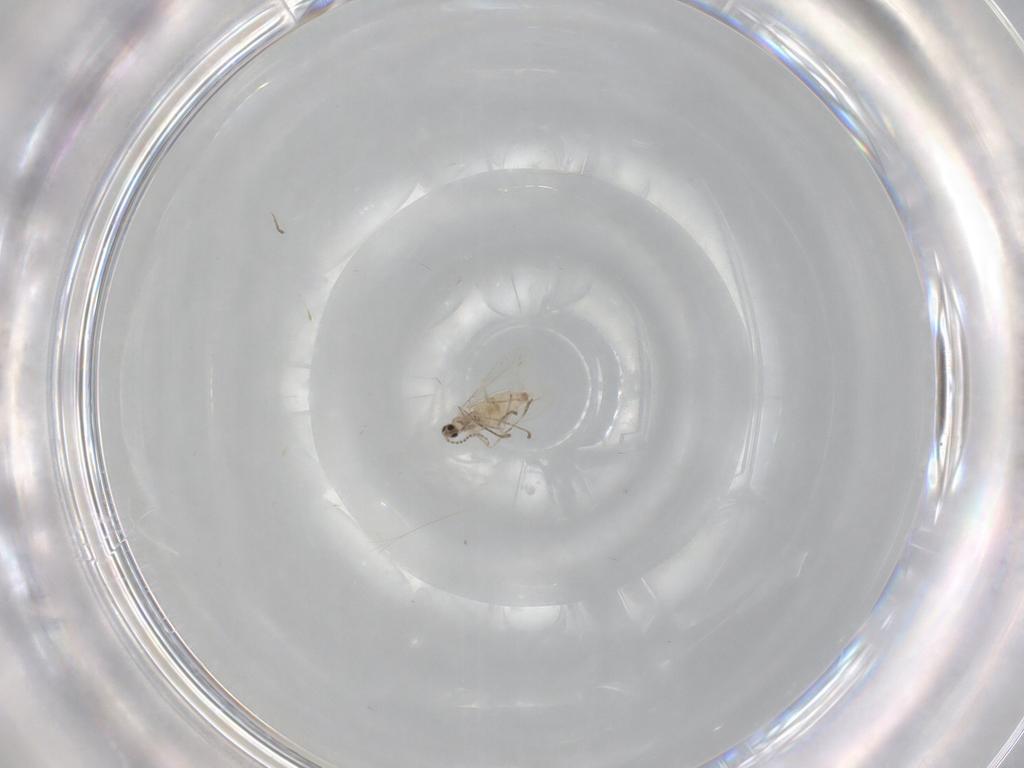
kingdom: Animalia
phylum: Arthropoda
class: Insecta
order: Diptera
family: Cecidomyiidae
